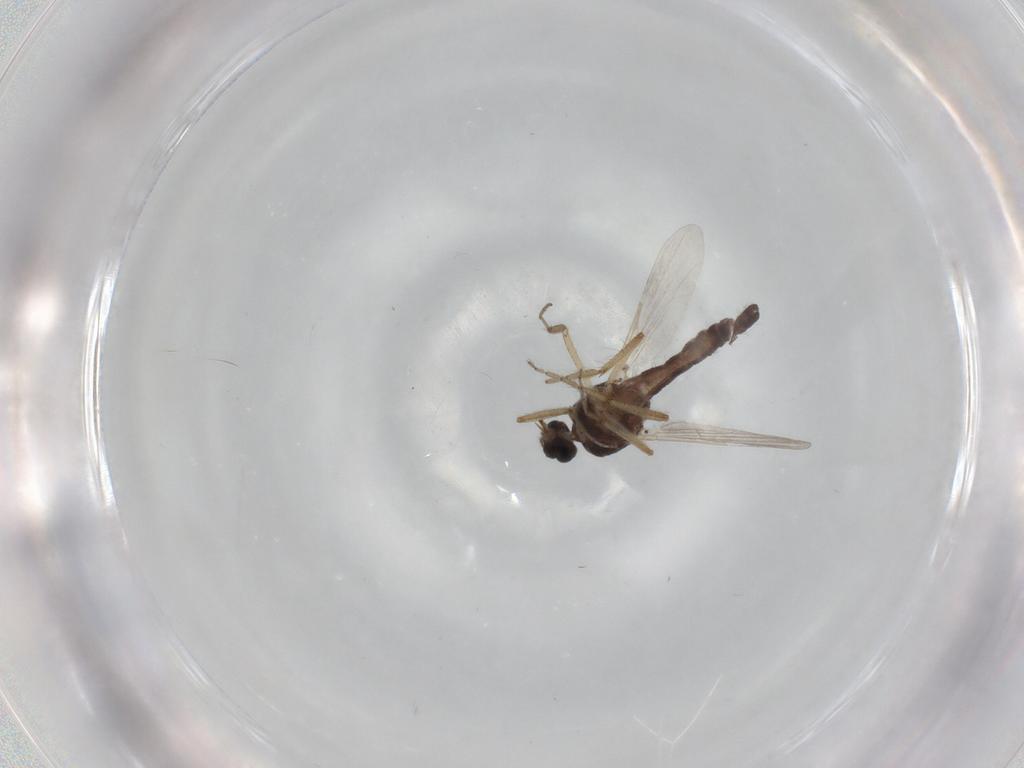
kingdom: Animalia
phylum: Arthropoda
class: Insecta
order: Diptera
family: Ceratopogonidae
